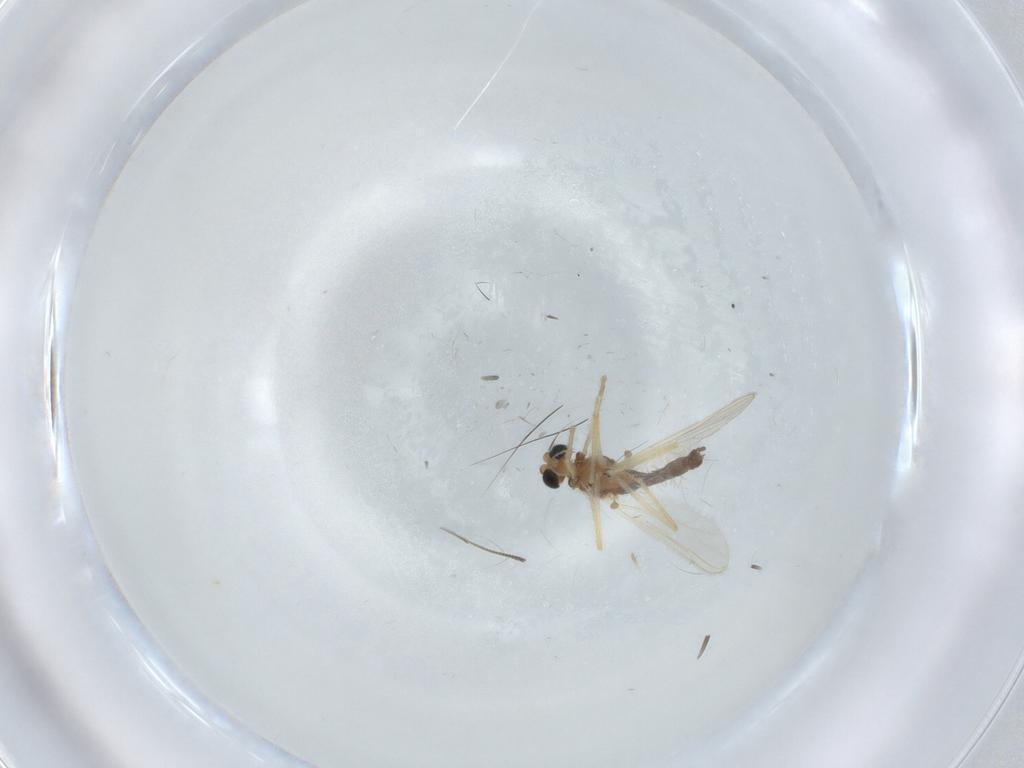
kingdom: Animalia
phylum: Arthropoda
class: Insecta
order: Diptera
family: Chironomidae
